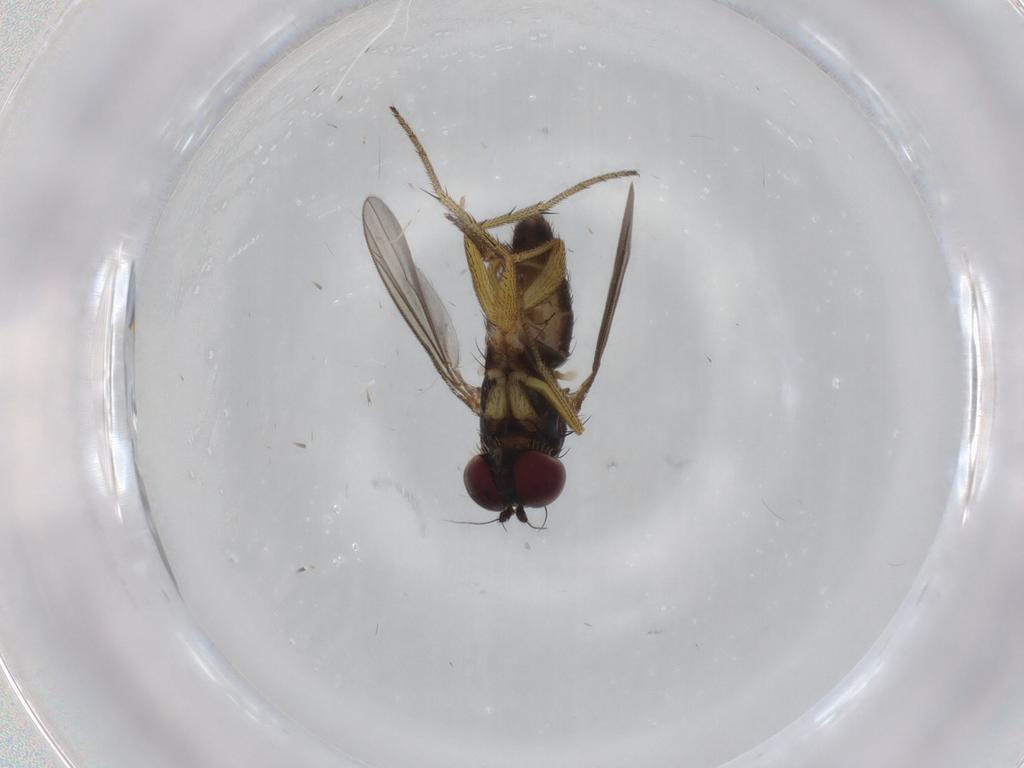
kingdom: Animalia
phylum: Arthropoda
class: Insecta
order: Diptera
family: Dolichopodidae
